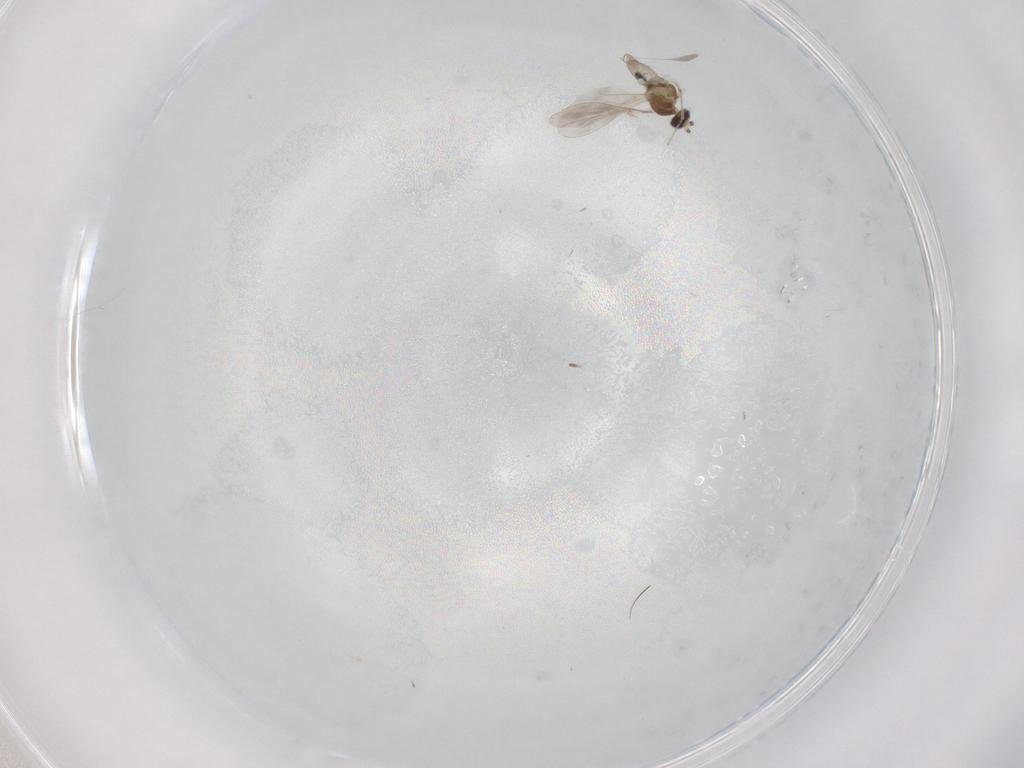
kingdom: Animalia
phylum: Arthropoda
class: Insecta
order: Diptera
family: Cecidomyiidae
